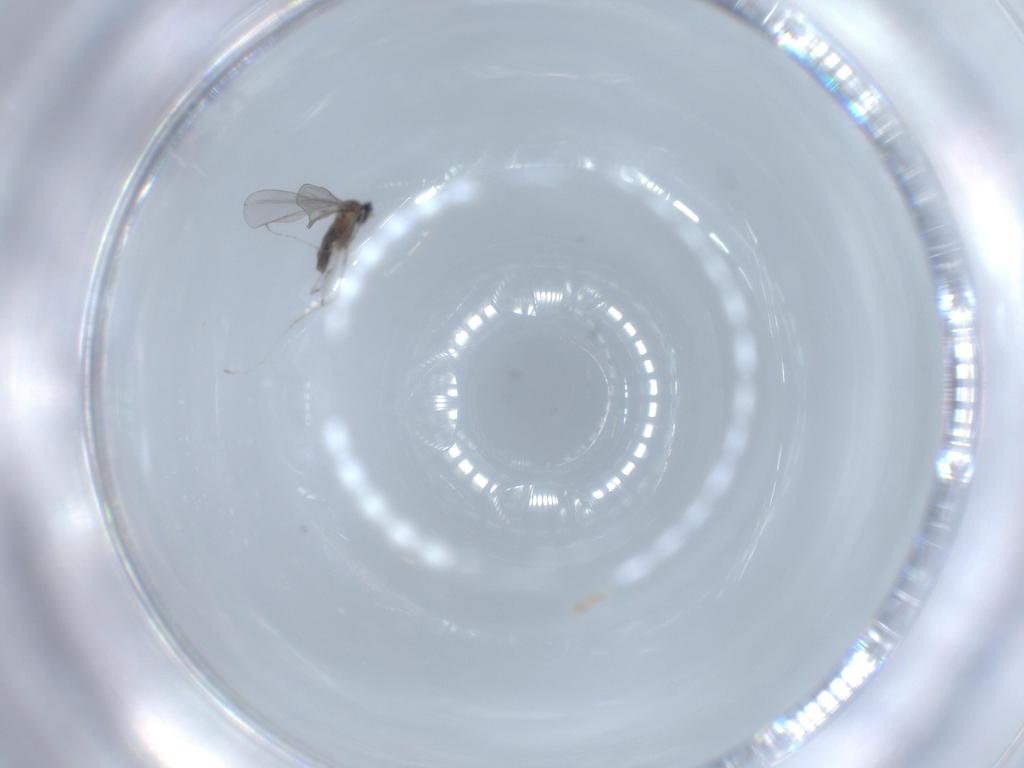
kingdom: Animalia
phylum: Arthropoda
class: Insecta
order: Diptera
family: Cecidomyiidae
